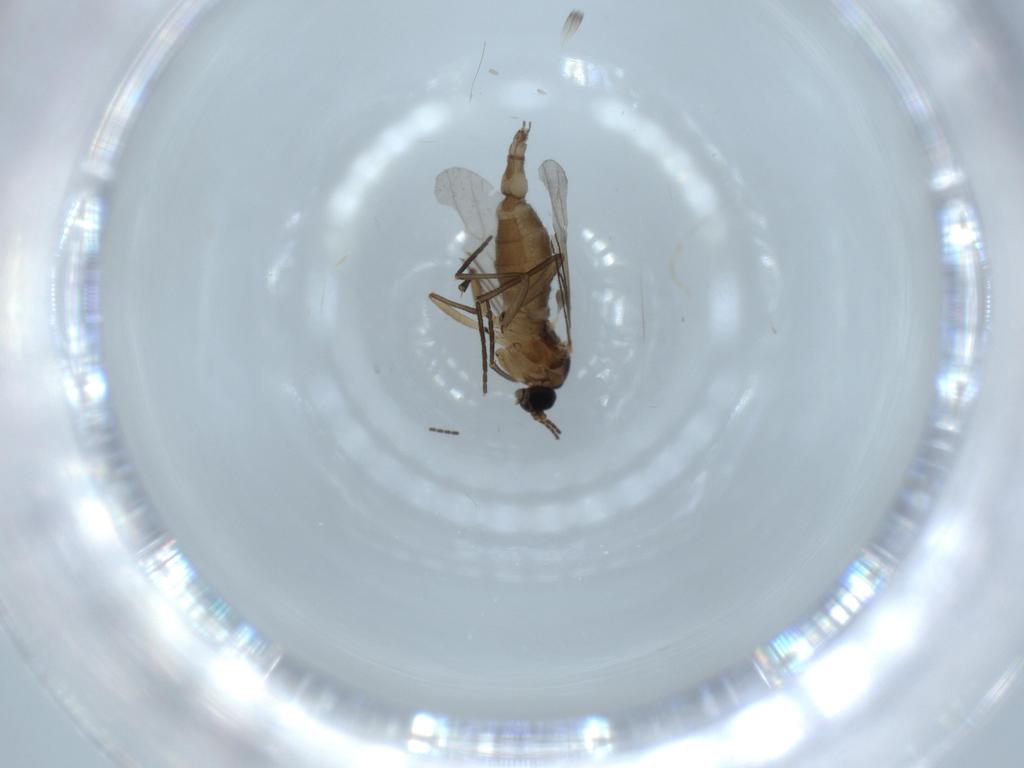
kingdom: Animalia
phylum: Arthropoda
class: Insecta
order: Diptera
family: Sciaridae
